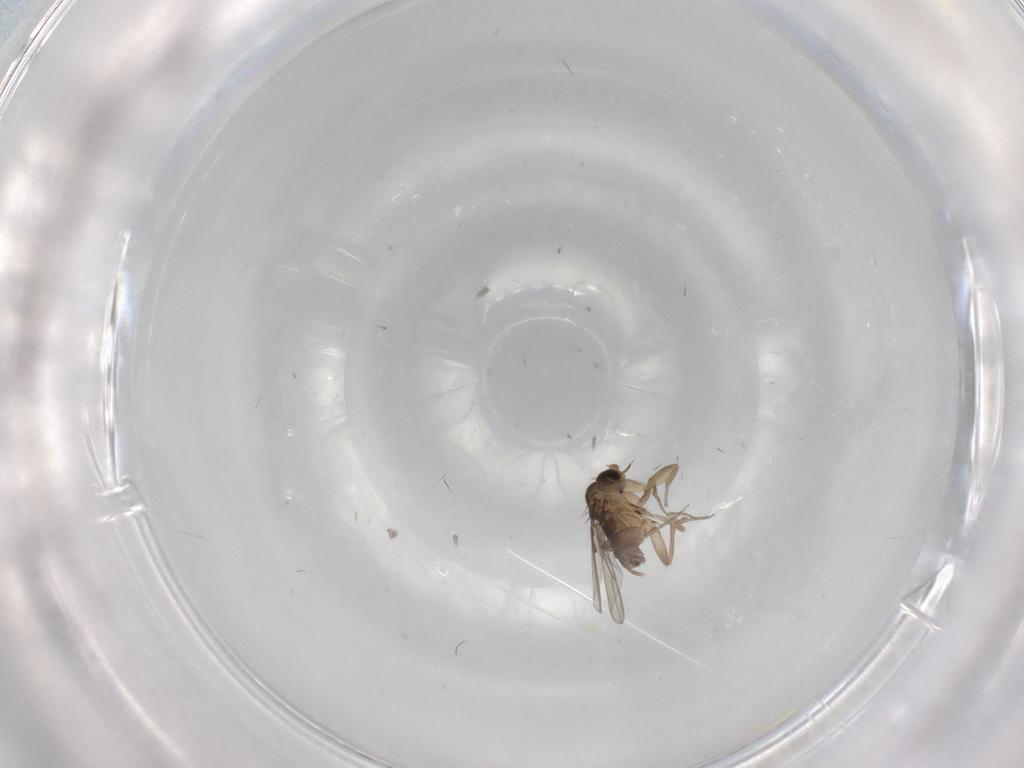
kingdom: Animalia
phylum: Arthropoda
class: Insecta
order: Diptera
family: Phoridae
